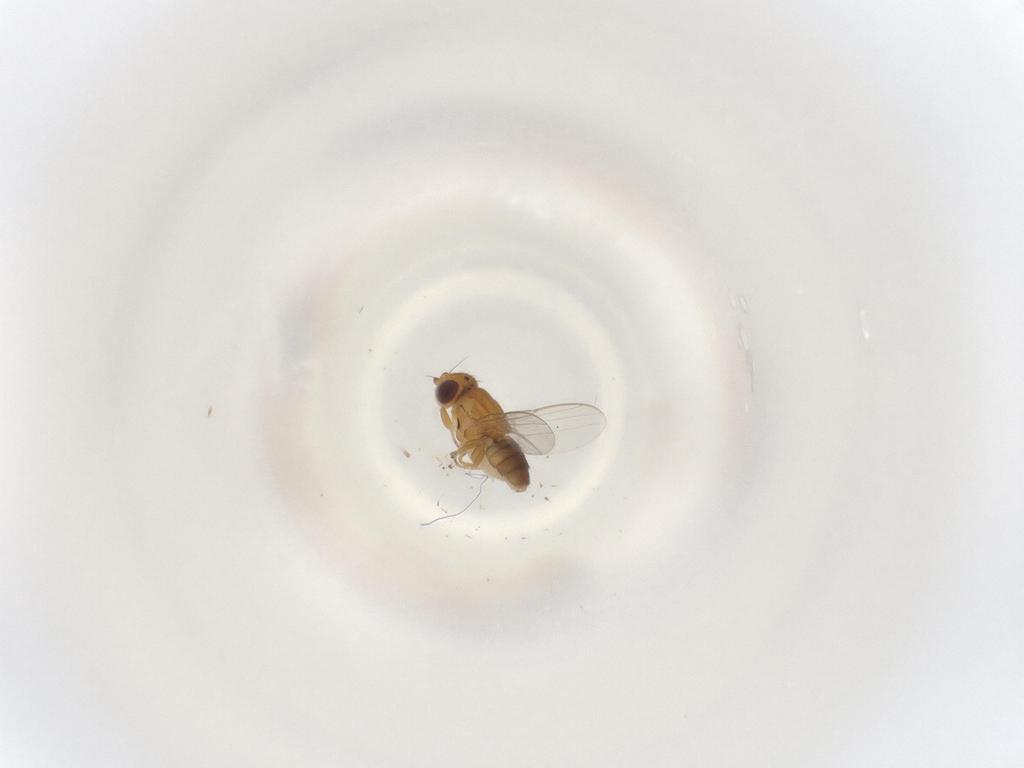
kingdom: Animalia
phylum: Arthropoda
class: Insecta
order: Diptera
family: Chloropidae
